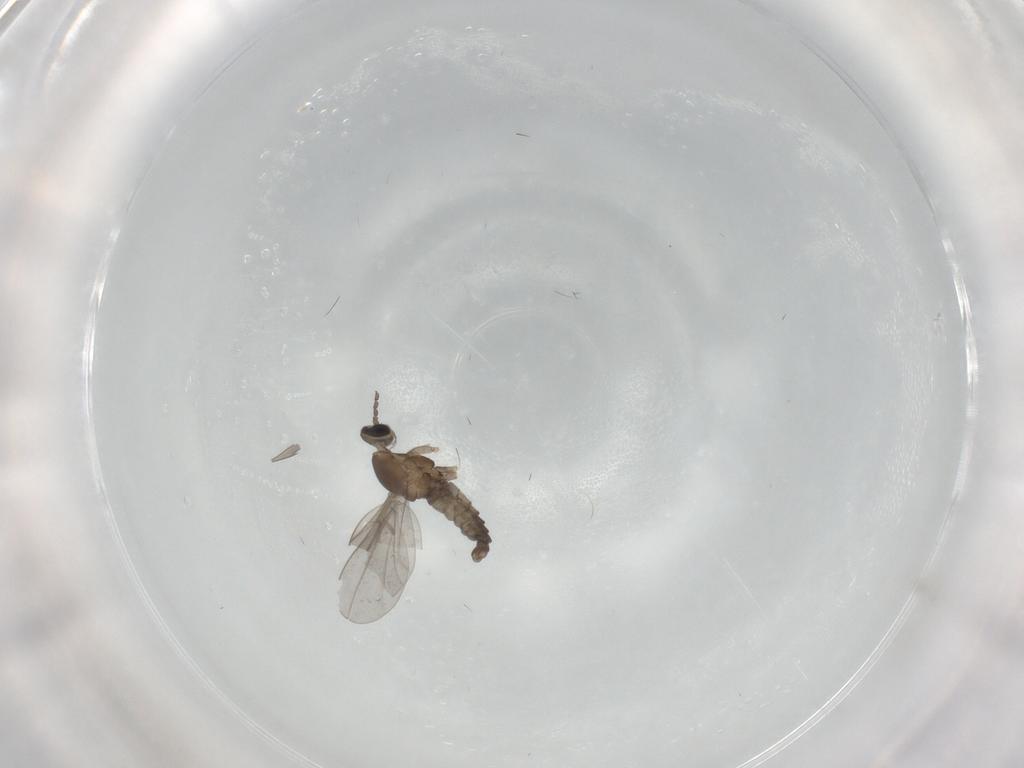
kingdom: Animalia
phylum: Arthropoda
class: Insecta
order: Diptera
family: Cecidomyiidae
